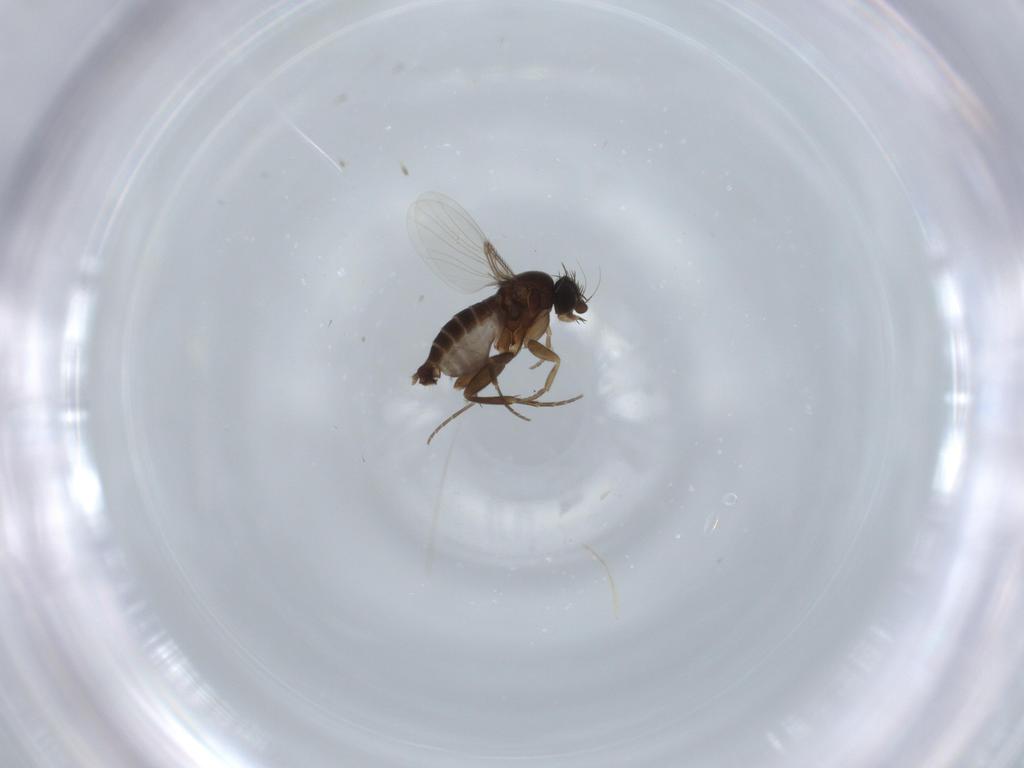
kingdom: Animalia
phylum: Arthropoda
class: Insecta
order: Diptera
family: Phoridae
